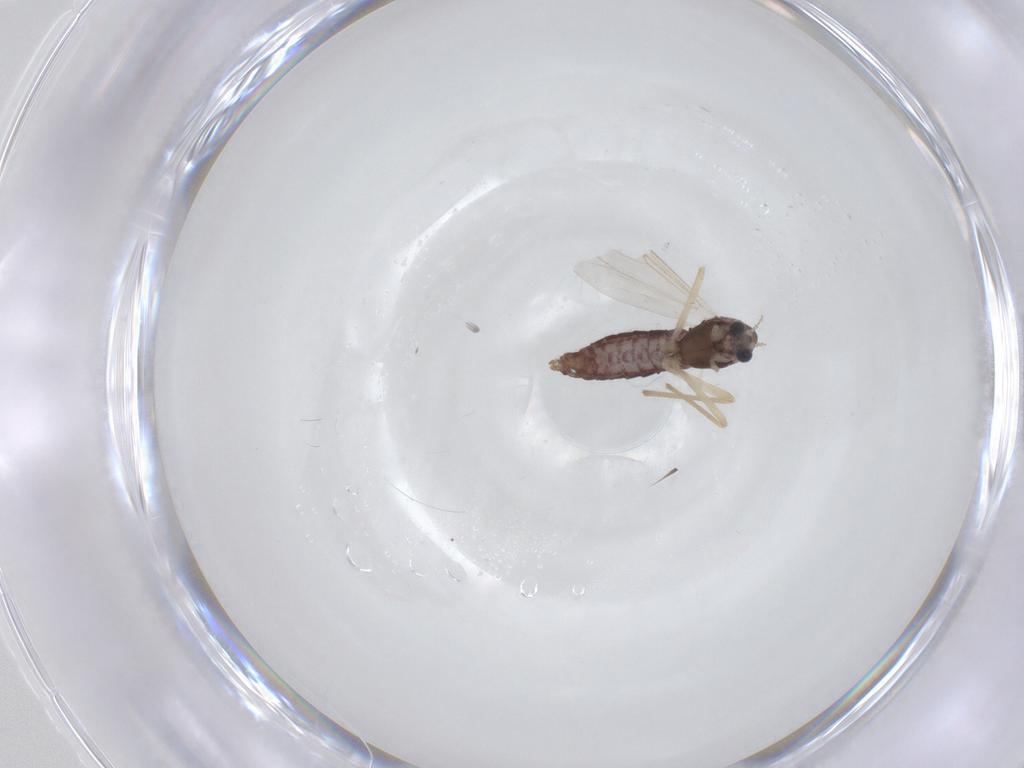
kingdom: Animalia
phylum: Arthropoda
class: Insecta
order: Diptera
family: Chironomidae
